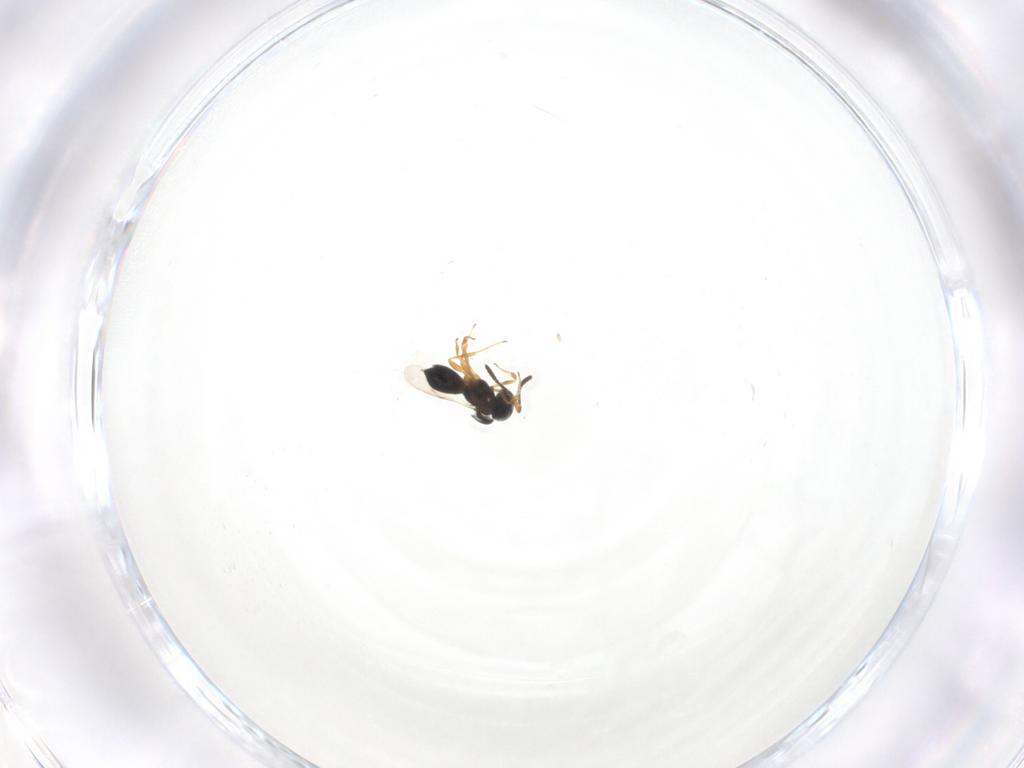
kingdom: Animalia
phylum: Arthropoda
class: Insecta
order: Hymenoptera
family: Scelionidae
